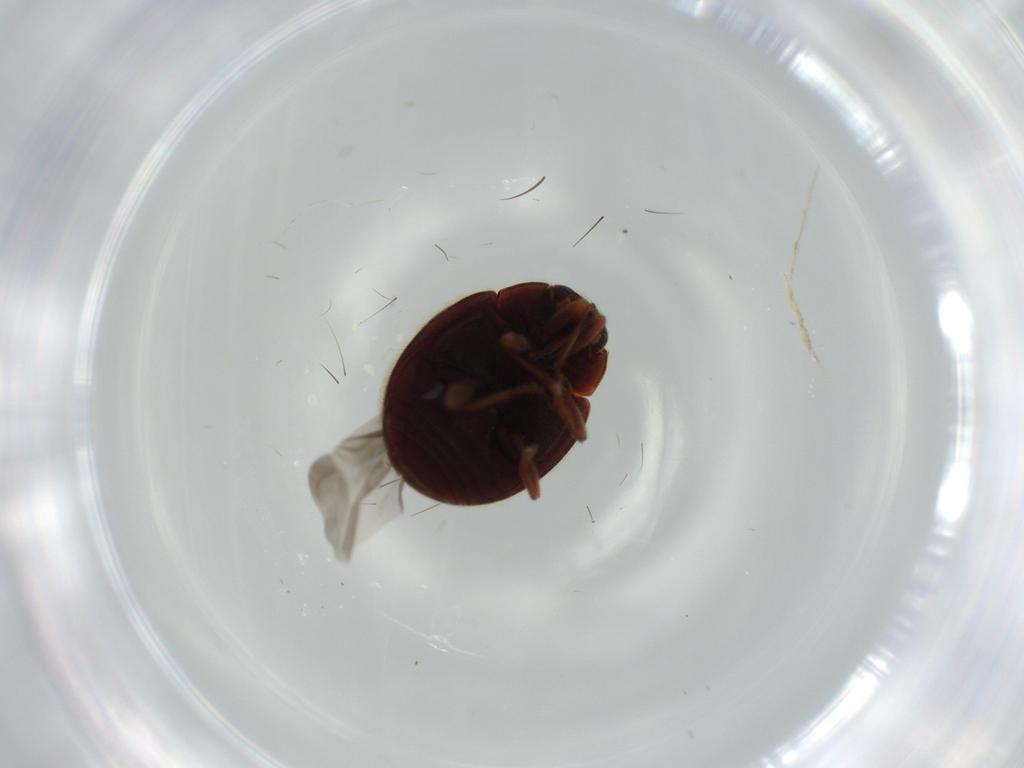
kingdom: Animalia
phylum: Arthropoda
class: Insecta
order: Coleoptera
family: Coccinellidae
